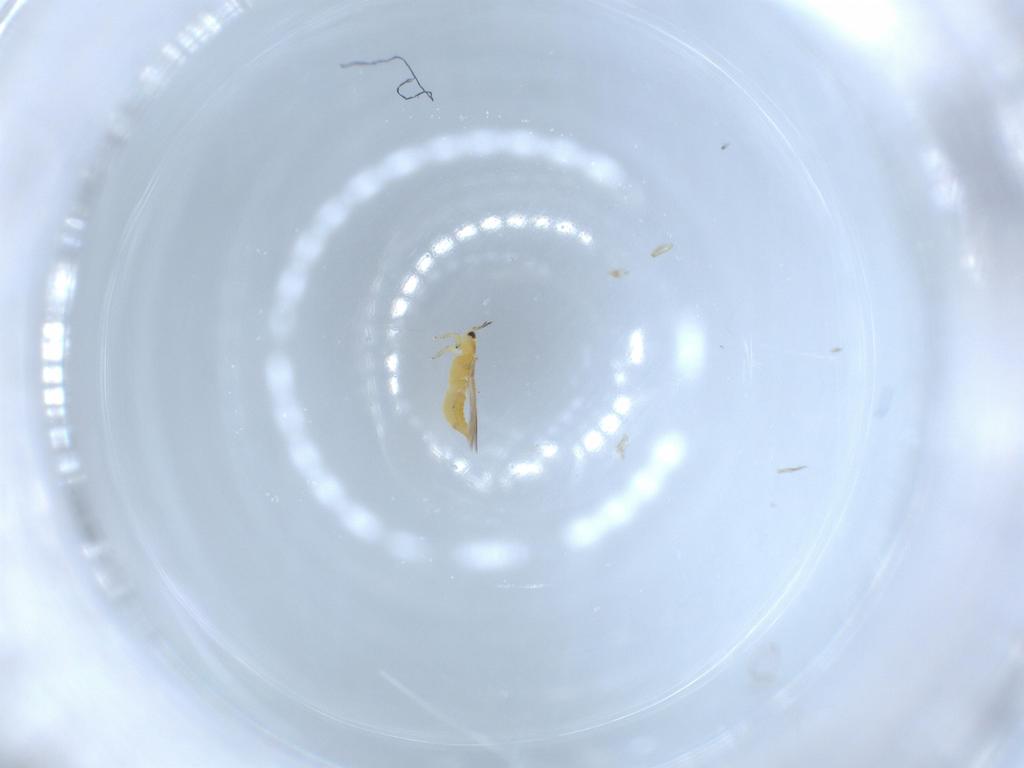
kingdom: Animalia
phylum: Arthropoda
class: Insecta
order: Thysanoptera
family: Thripidae
